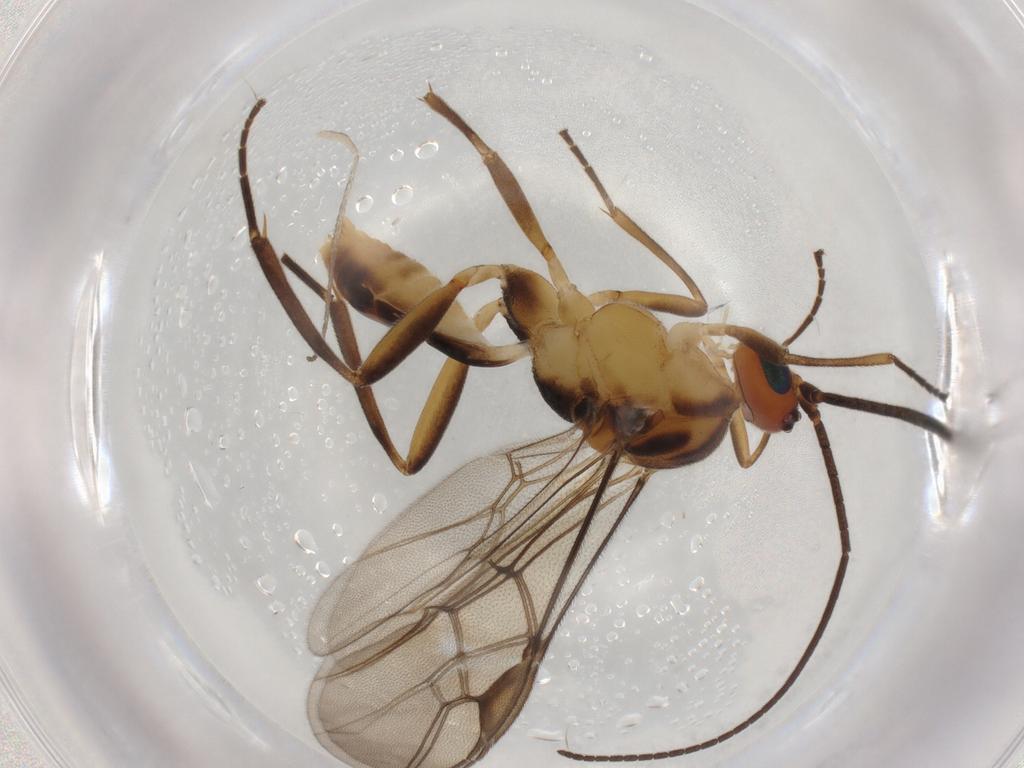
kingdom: Animalia
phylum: Arthropoda
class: Insecta
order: Hymenoptera
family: Braconidae
